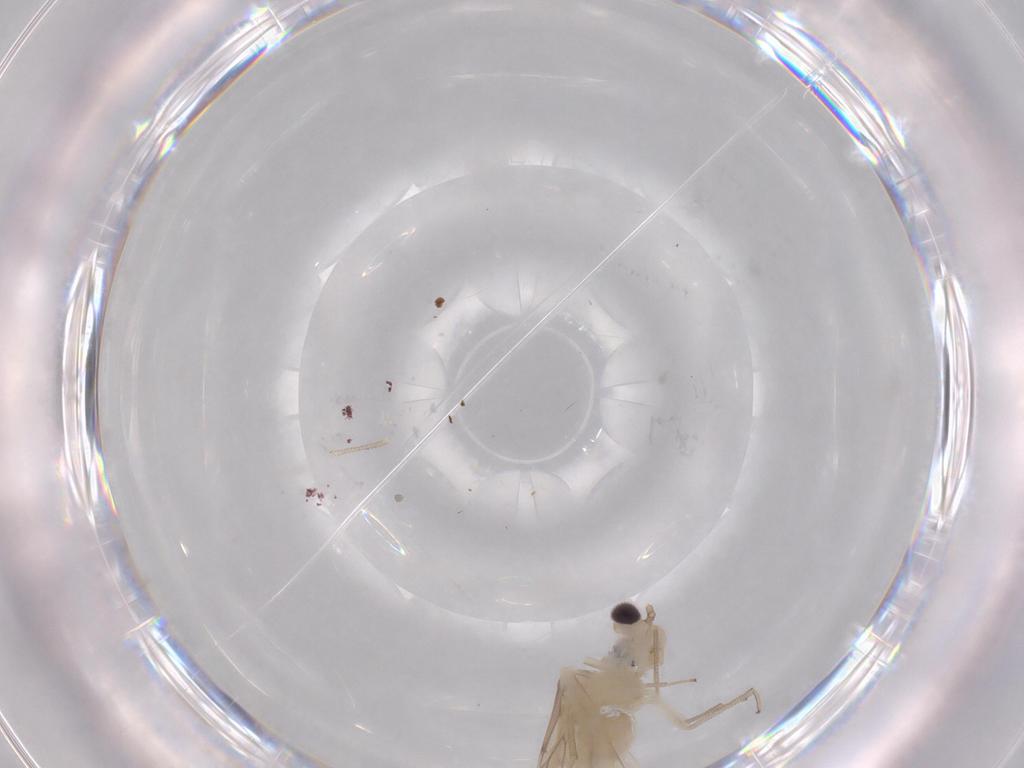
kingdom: Animalia
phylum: Arthropoda
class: Insecta
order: Psocodea
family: Caeciliusidae
